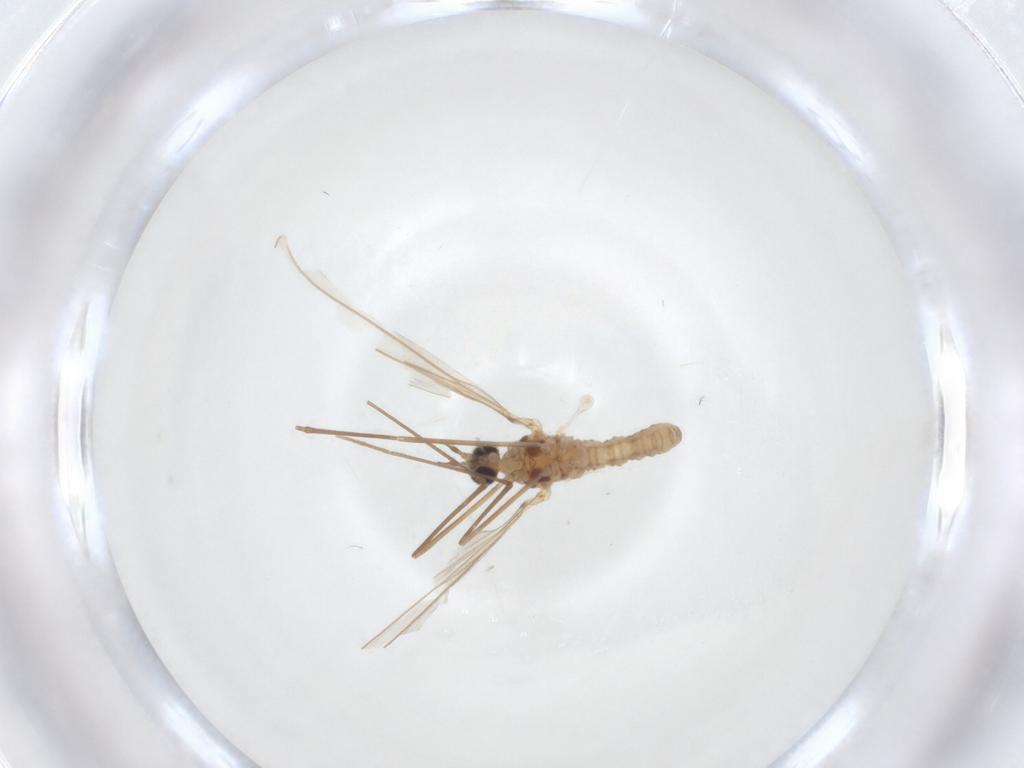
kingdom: Animalia
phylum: Arthropoda
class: Insecta
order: Diptera
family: Cecidomyiidae
